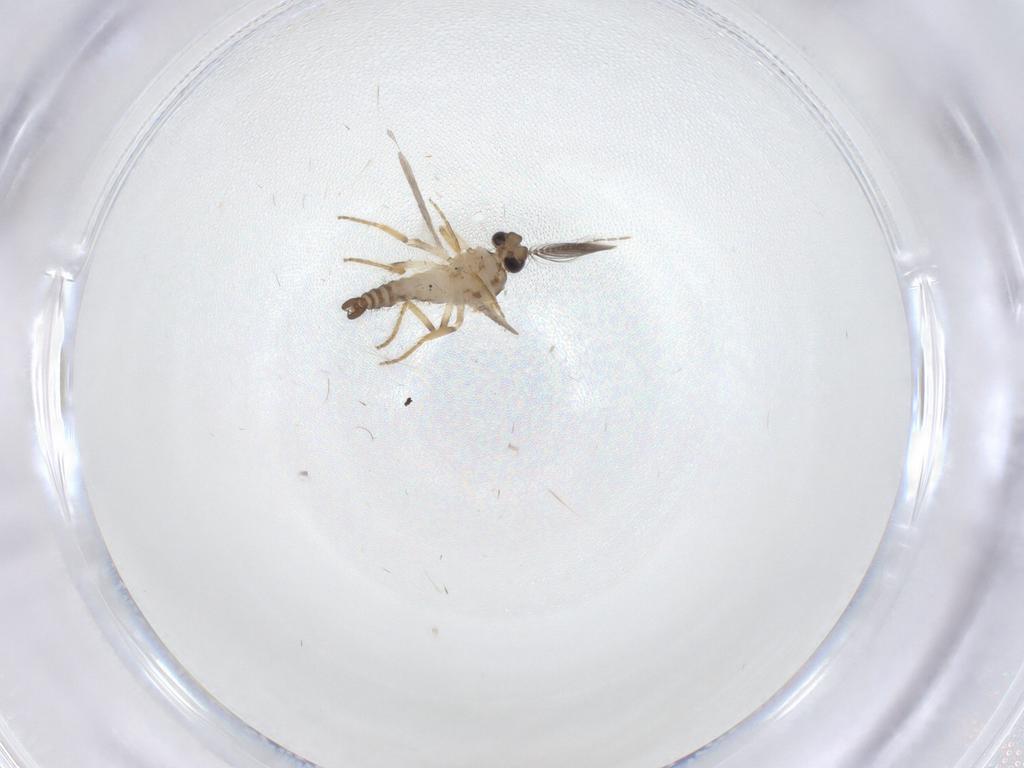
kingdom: Animalia
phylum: Arthropoda
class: Insecta
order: Diptera
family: Ceratopogonidae
